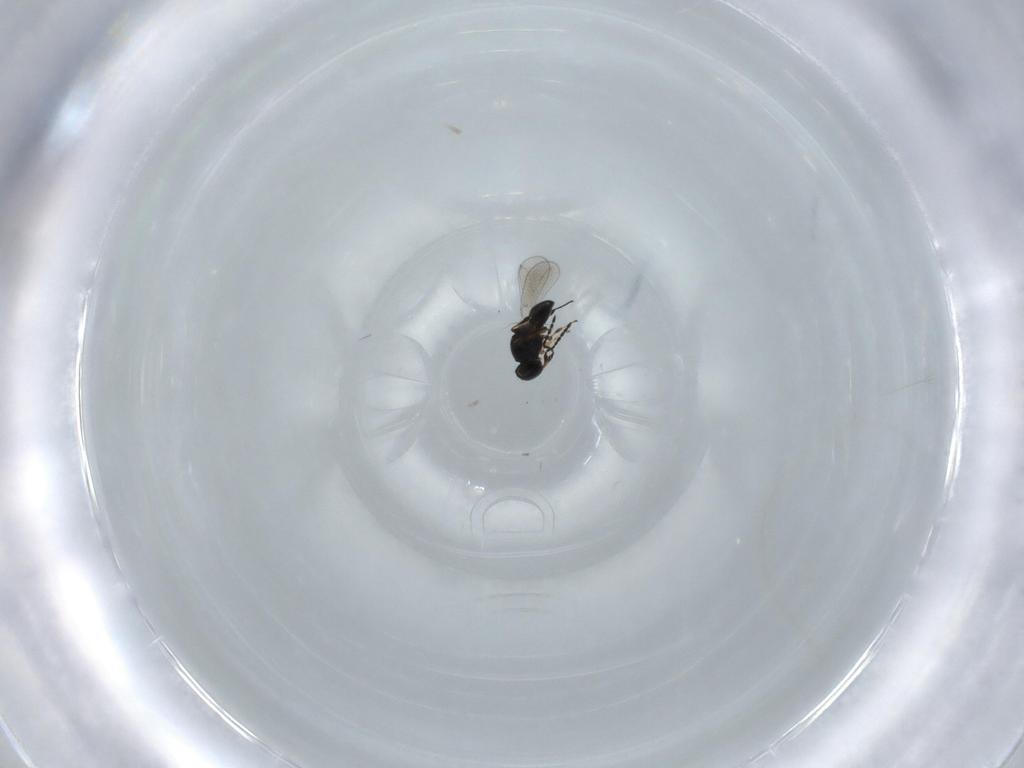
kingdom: Animalia
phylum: Arthropoda
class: Insecta
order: Hymenoptera
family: Platygastridae
